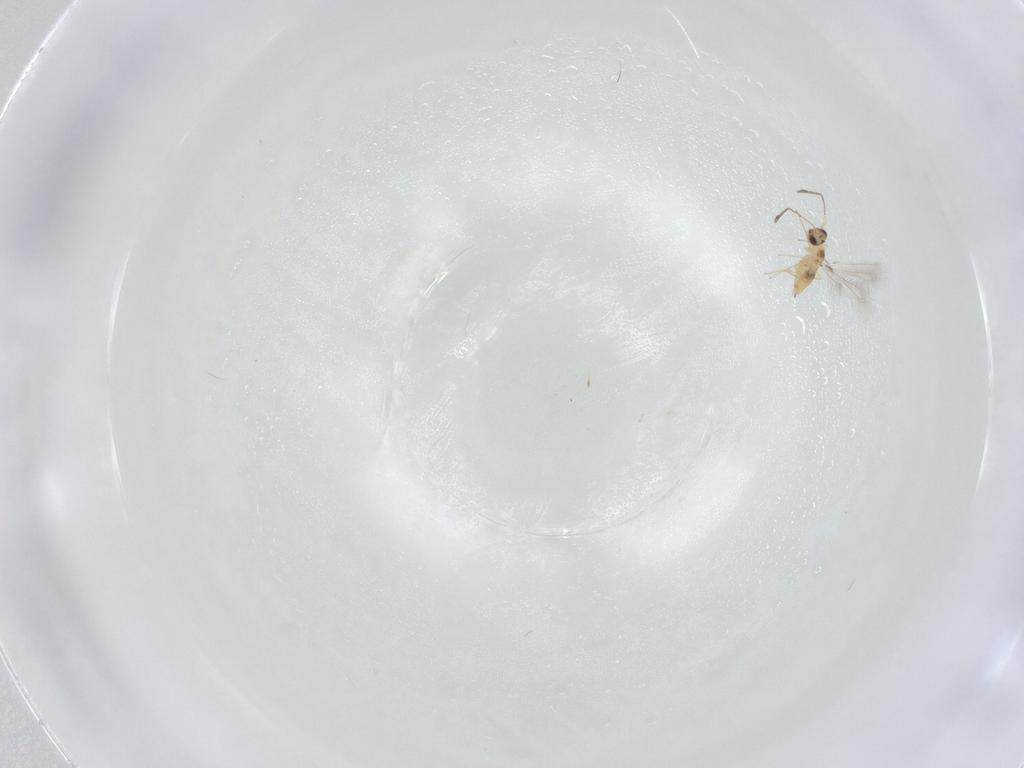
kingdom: Animalia
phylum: Arthropoda
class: Insecta
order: Hymenoptera
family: Mymaridae
